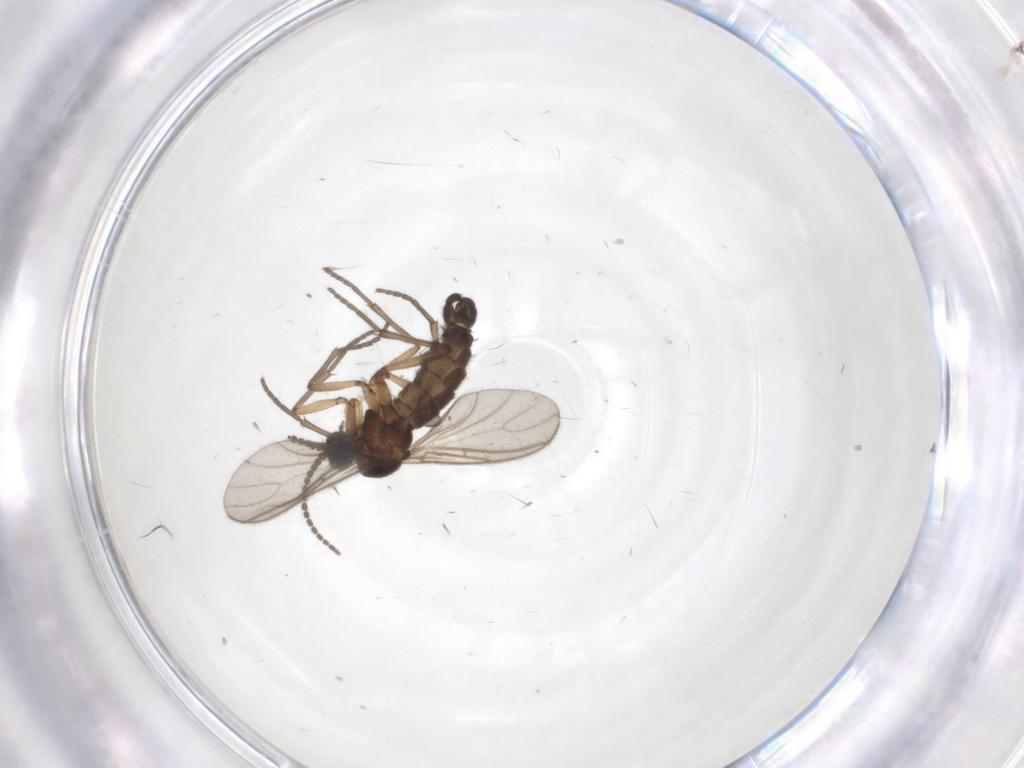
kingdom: Animalia
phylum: Arthropoda
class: Insecta
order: Diptera
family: Sciaridae
